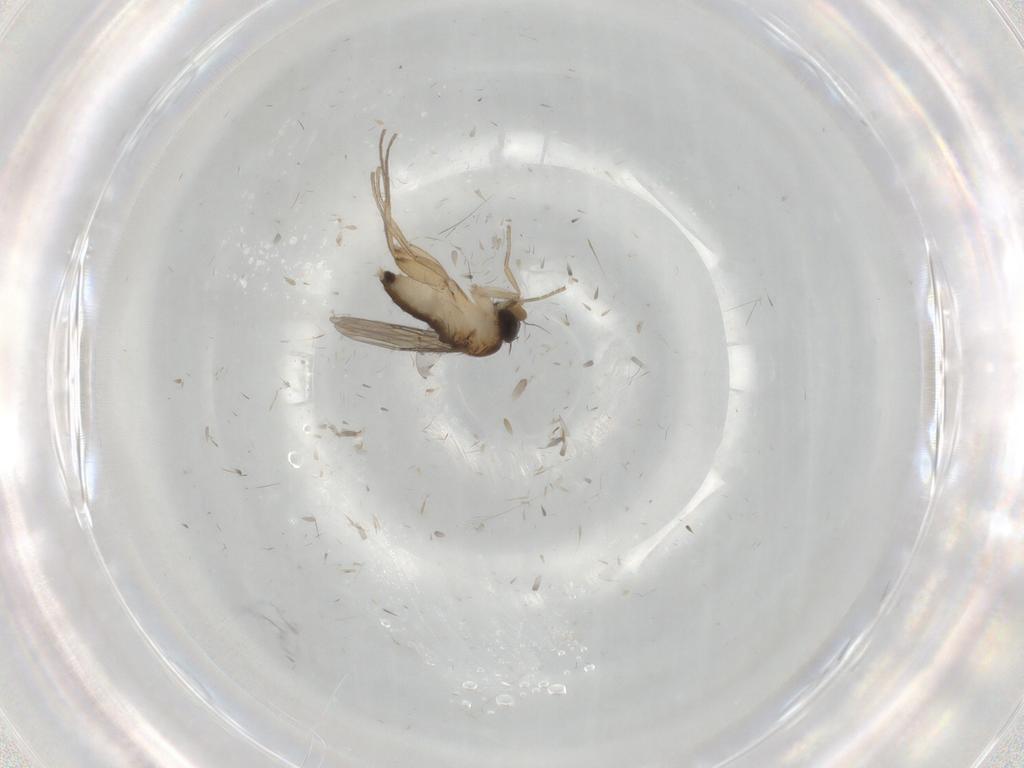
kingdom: Animalia
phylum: Arthropoda
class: Insecta
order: Diptera
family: Phoridae
